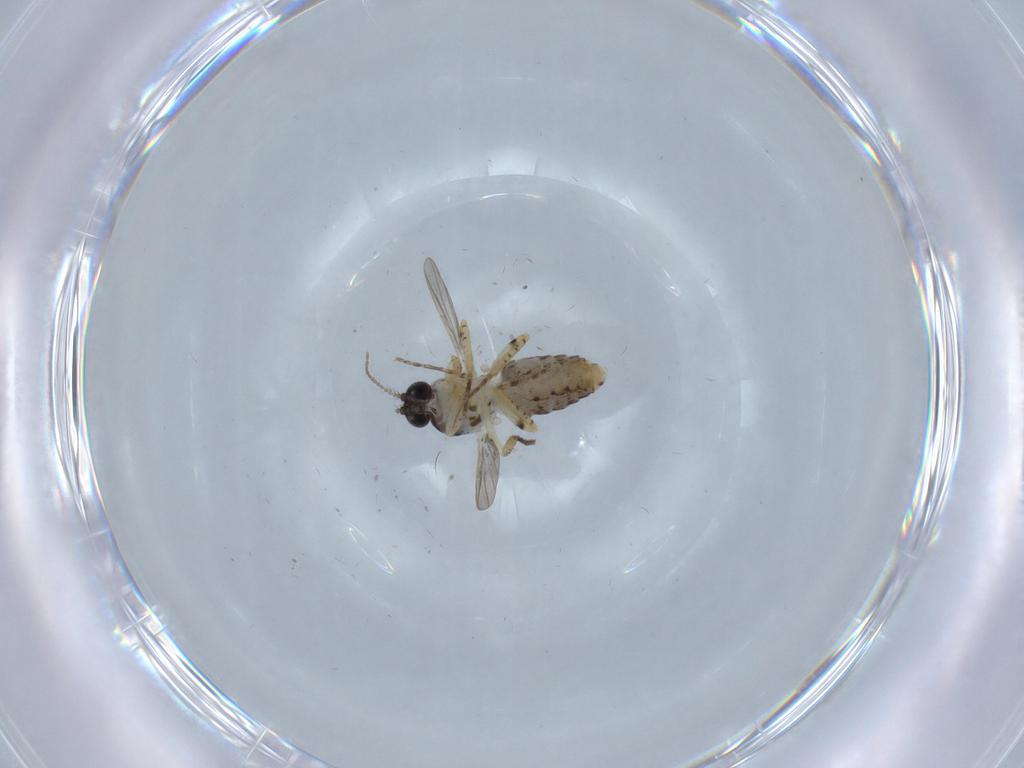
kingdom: Animalia
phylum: Arthropoda
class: Insecta
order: Diptera
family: Ceratopogonidae
